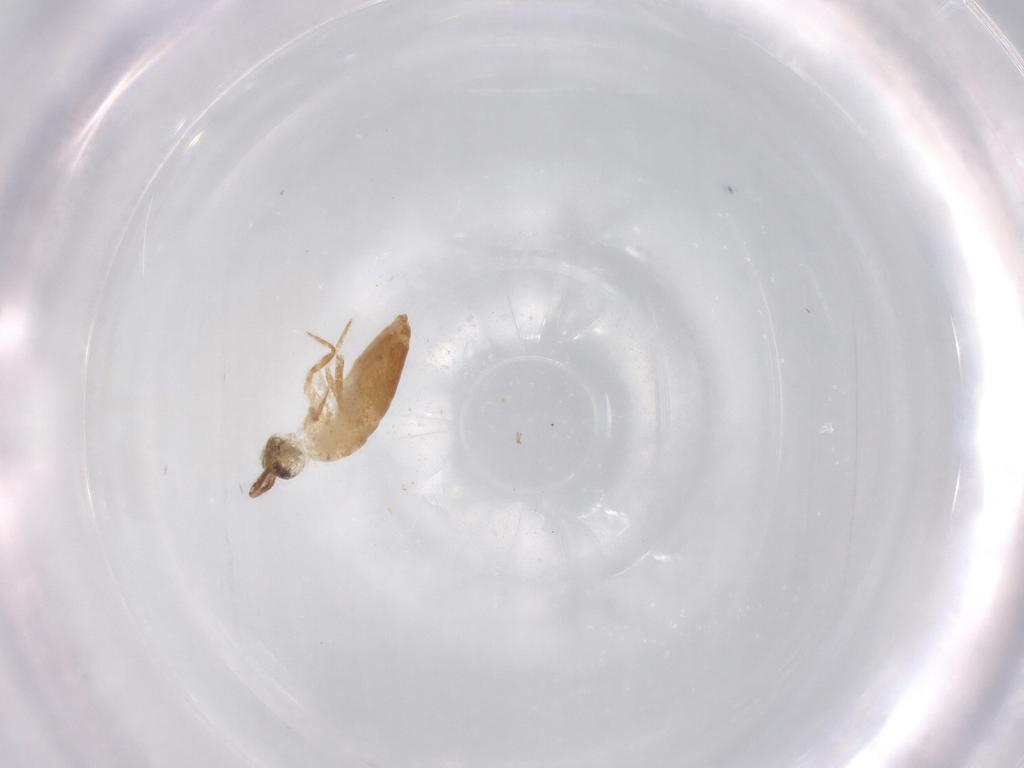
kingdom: Animalia
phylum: Arthropoda
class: Collembola
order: Entomobryomorpha
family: Entomobryidae
